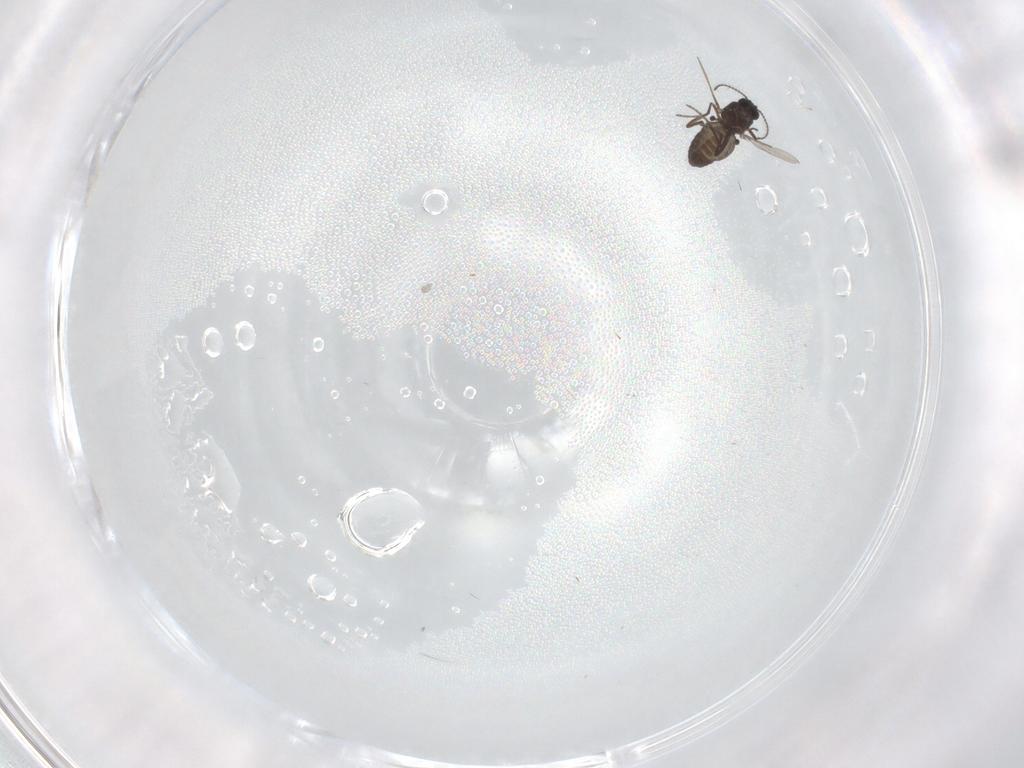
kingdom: Animalia
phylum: Arthropoda
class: Insecta
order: Diptera
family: Ceratopogonidae
